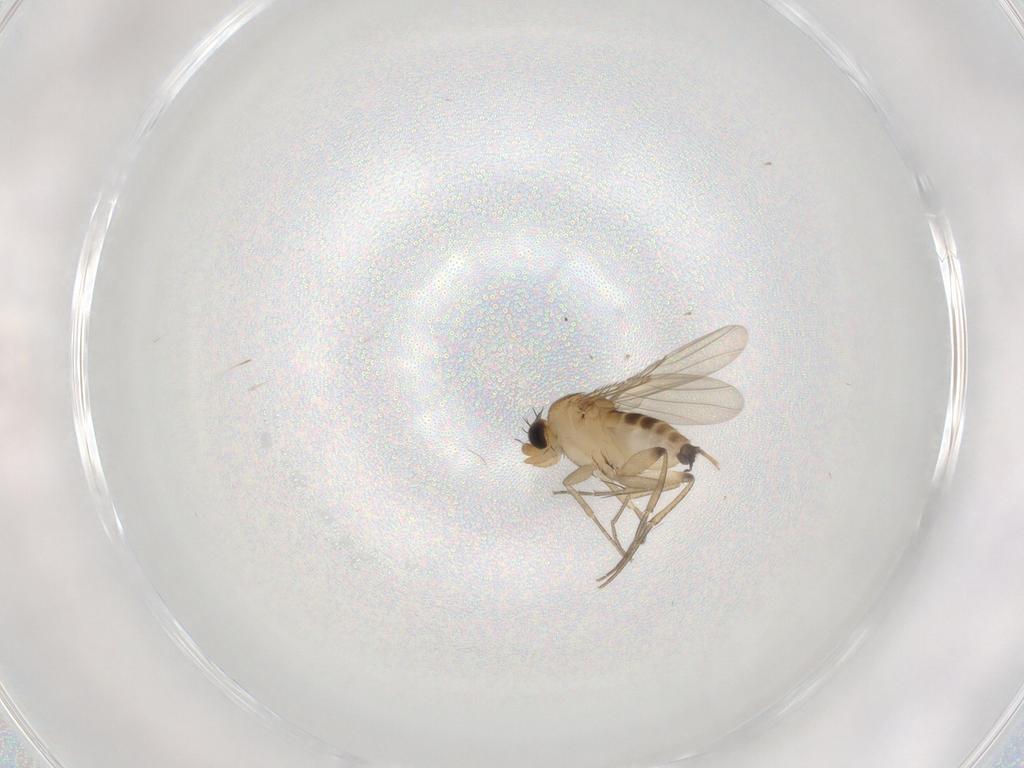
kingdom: Animalia
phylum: Arthropoda
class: Insecta
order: Diptera
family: Phoridae
